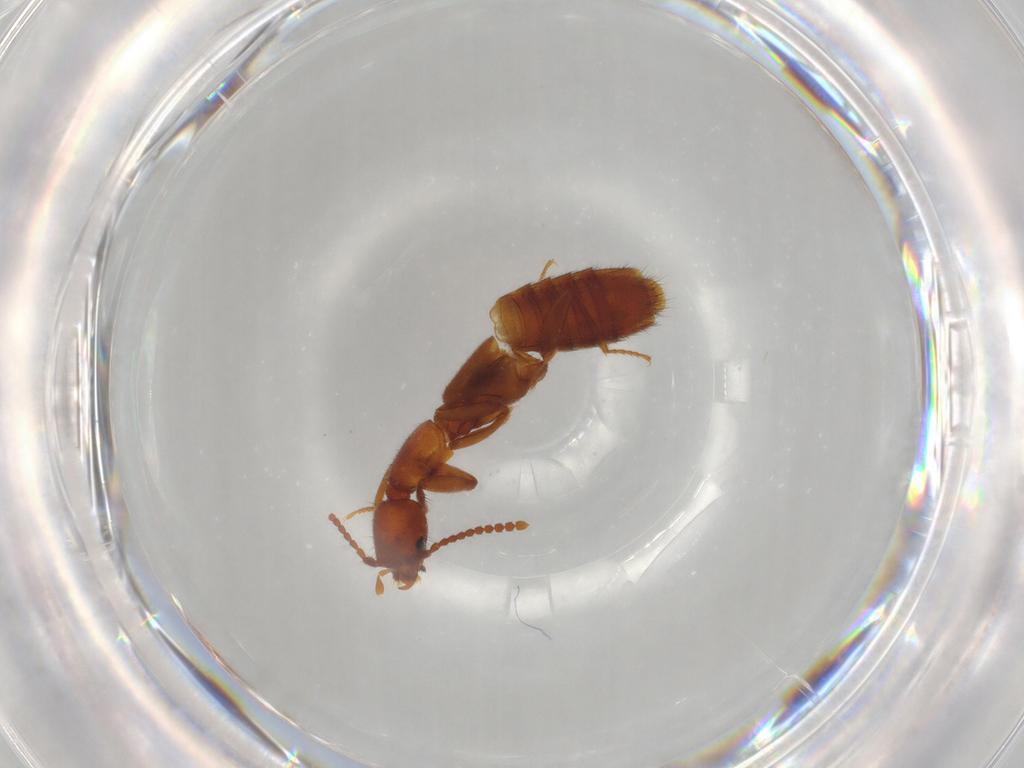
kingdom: Animalia
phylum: Arthropoda
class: Insecta
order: Coleoptera
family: Staphylinidae
